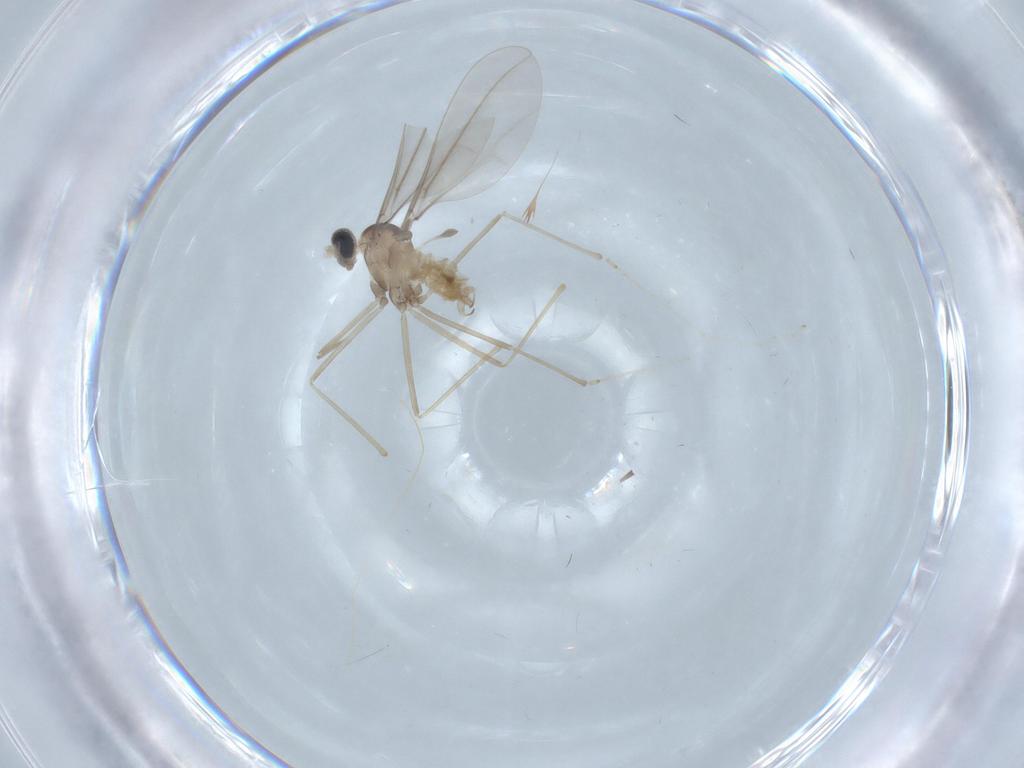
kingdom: Animalia
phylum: Arthropoda
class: Insecta
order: Diptera
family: Cecidomyiidae
